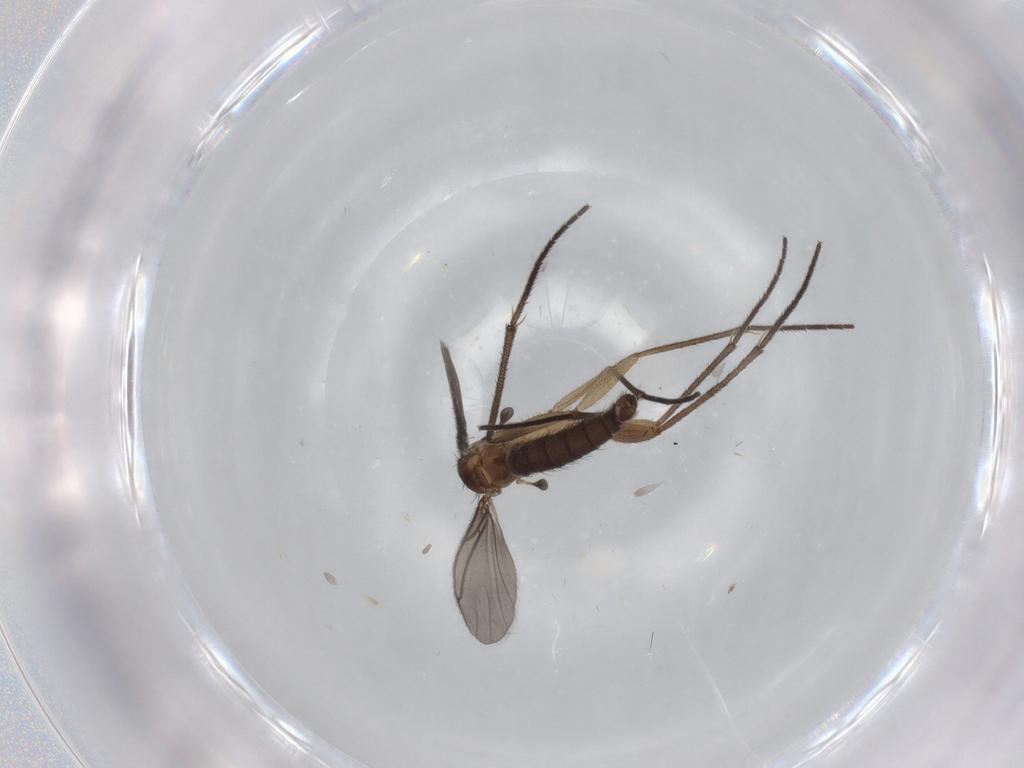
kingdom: Animalia
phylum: Arthropoda
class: Insecta
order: Diptera
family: Sciaridae
